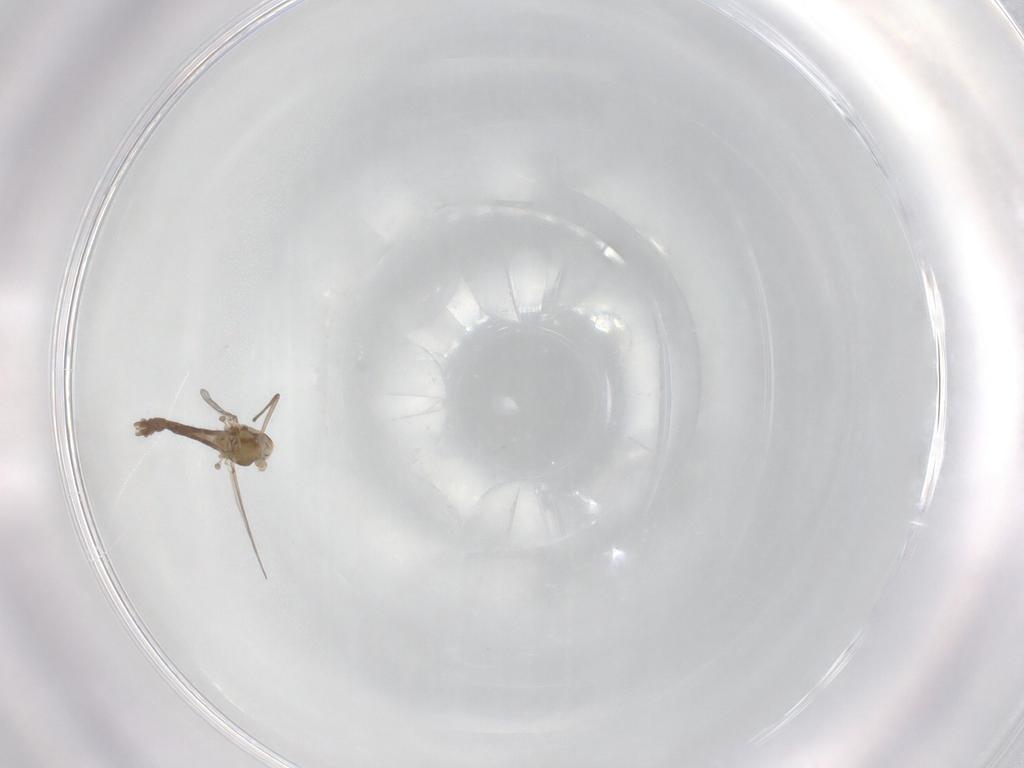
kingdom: Animalia
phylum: Arthropoda
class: Insecta
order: Diptera
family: Chironomidae
